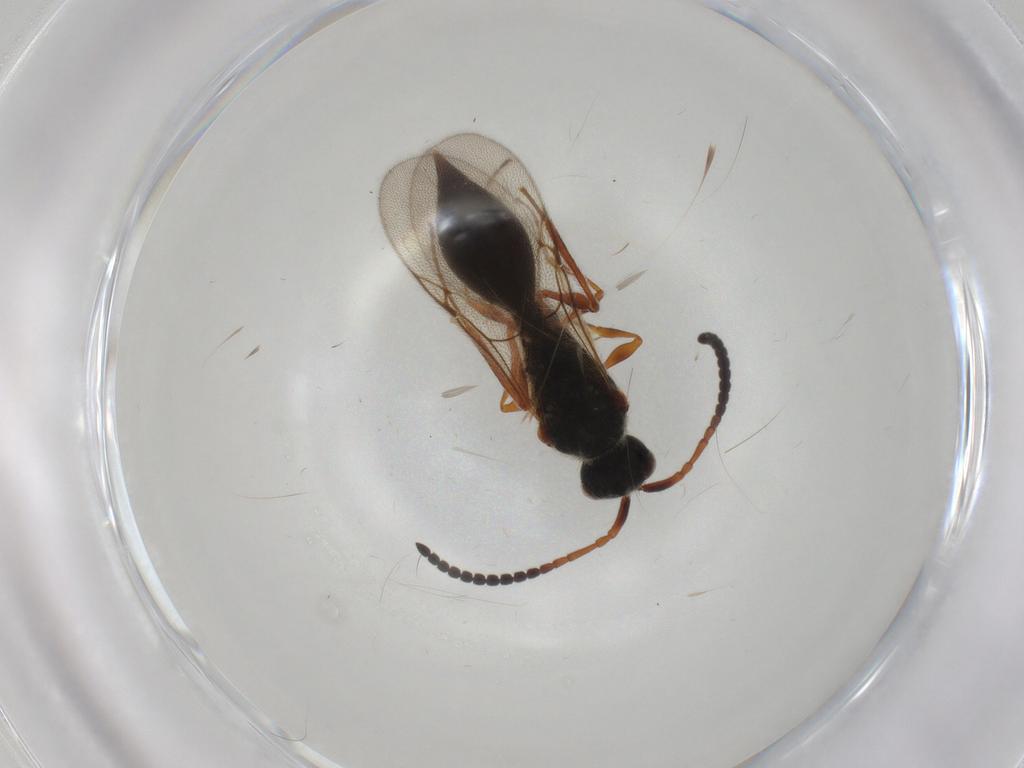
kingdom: Animalia
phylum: Arthropoda
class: Insecta
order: Hymenoptera
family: Diapriidae
